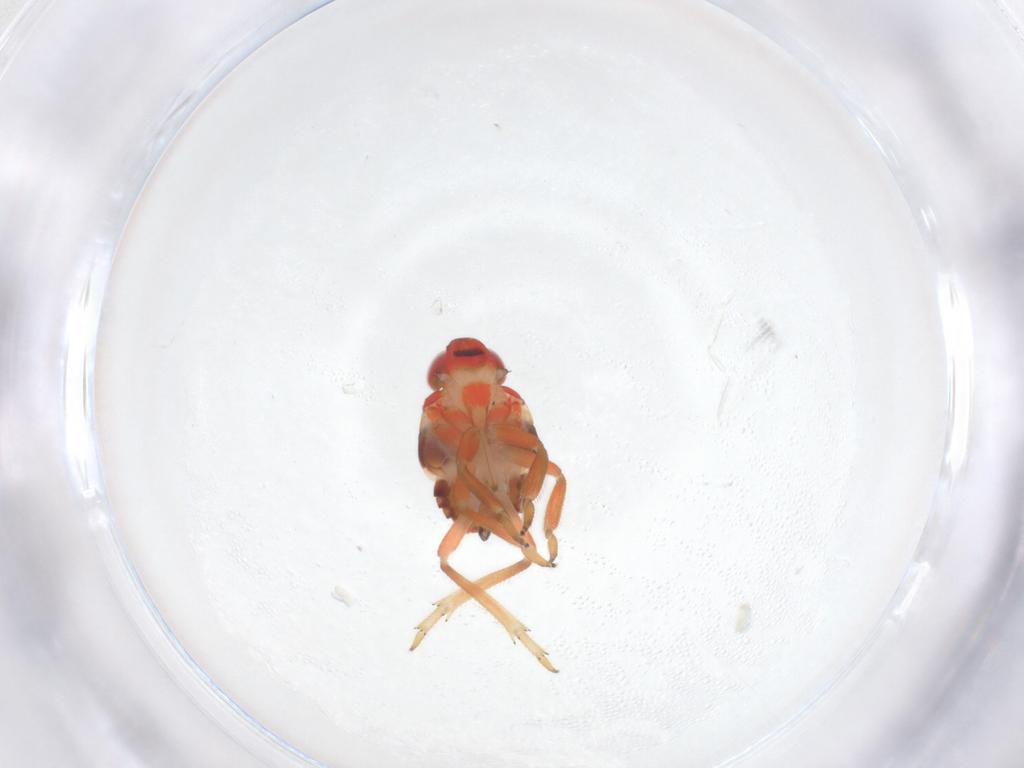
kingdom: Animalia
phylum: Arthropoda
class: Insecta
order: Hemiptera
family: Issidae
